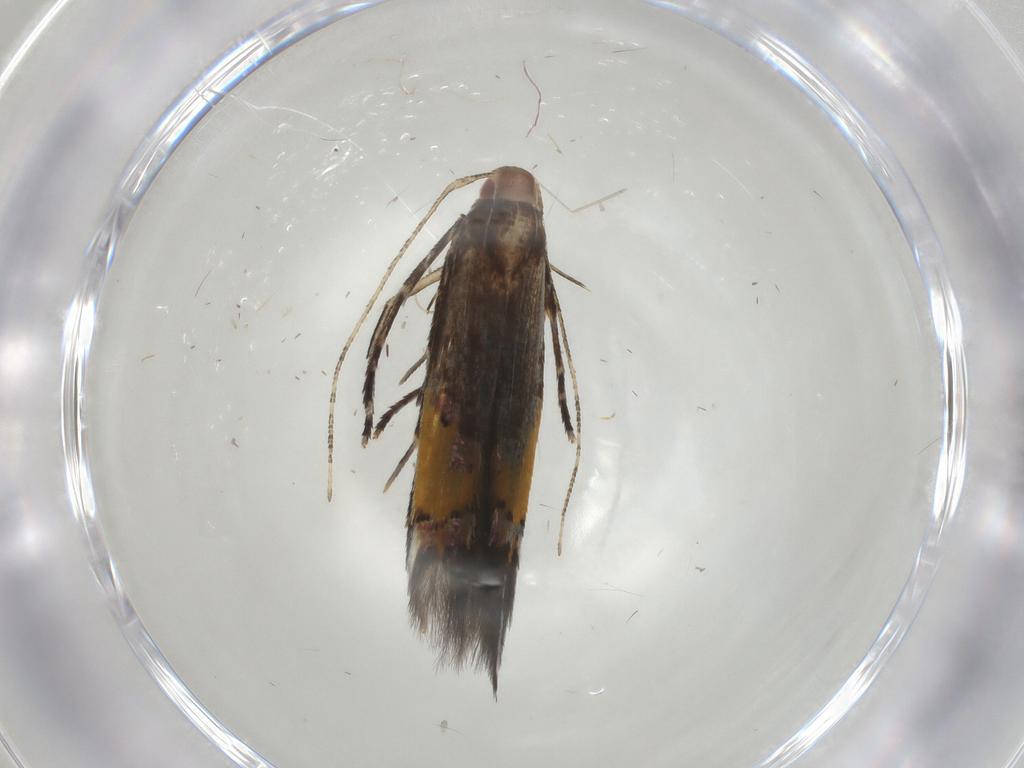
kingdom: Animalia
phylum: Arthropoda
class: Insecta
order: Lepidoptera
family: Cosmopterigidae
